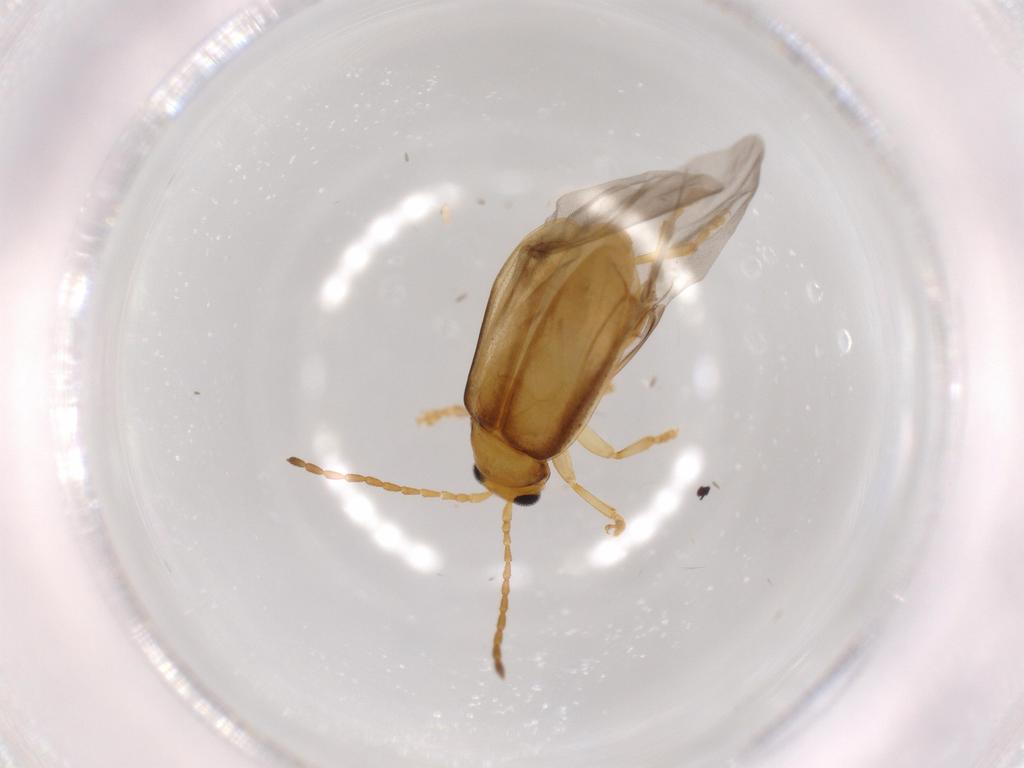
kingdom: Animalia
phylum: Arthropoda
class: Insecta
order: Coleoptera
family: Chrysomelidae
